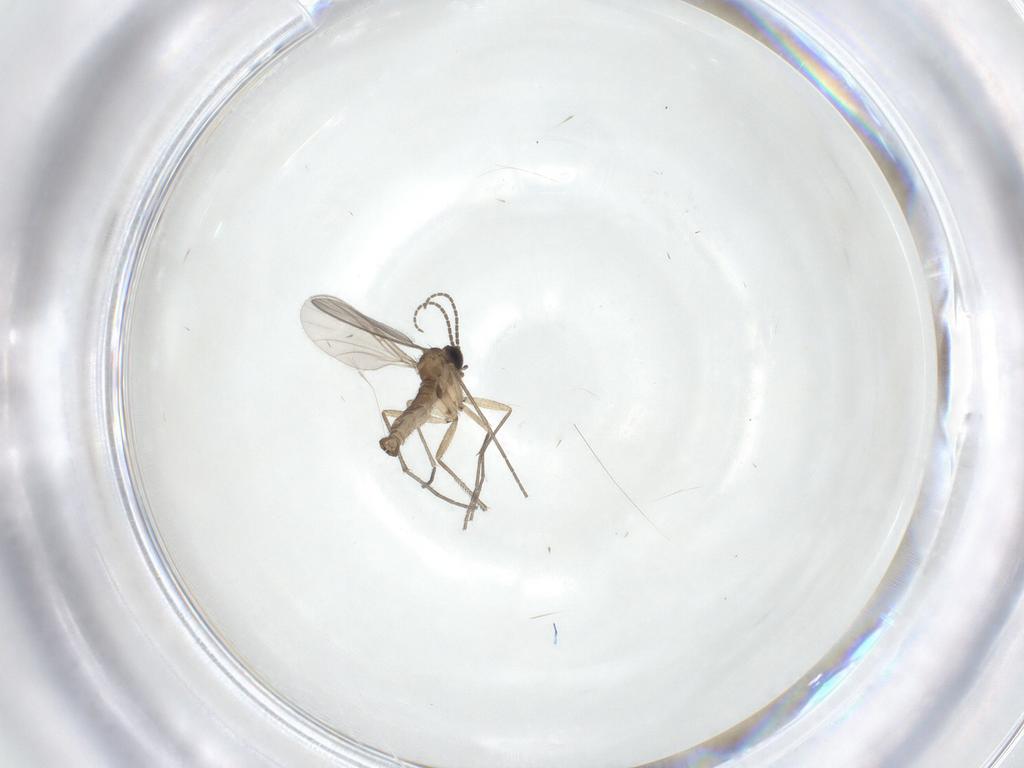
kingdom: Animalia
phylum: Arthropoda
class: Insecta
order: Diptera
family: Sciaridae
